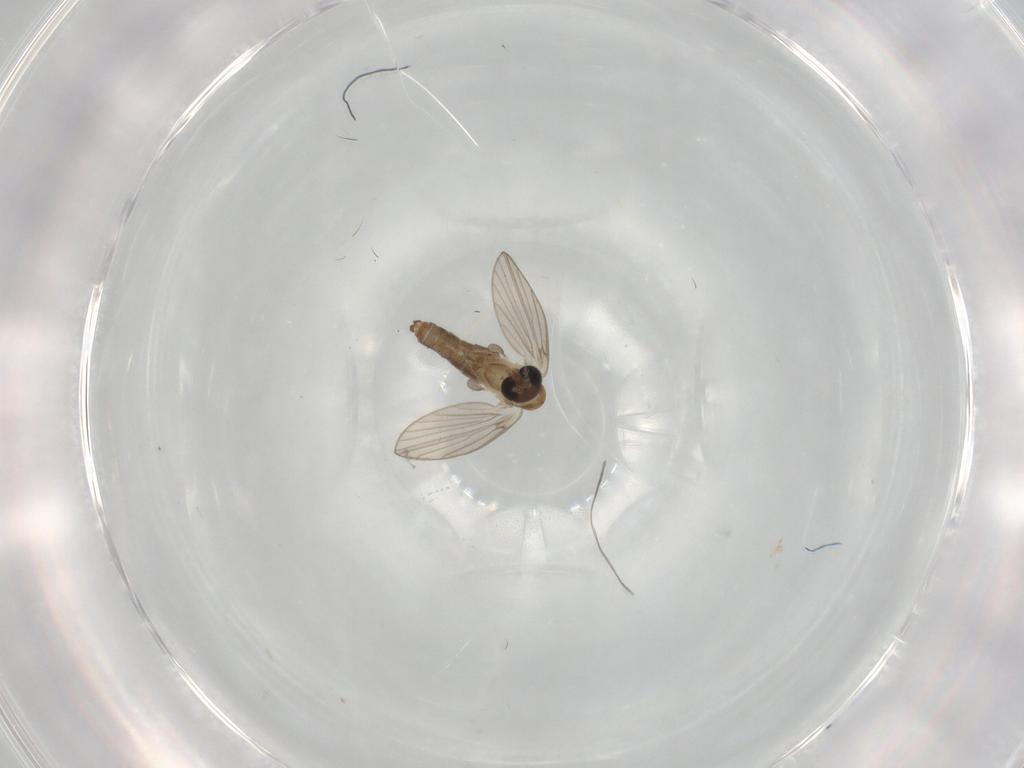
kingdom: Animalia
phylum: Arthropoda
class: Insecta
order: Diptera
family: Psychodidae
